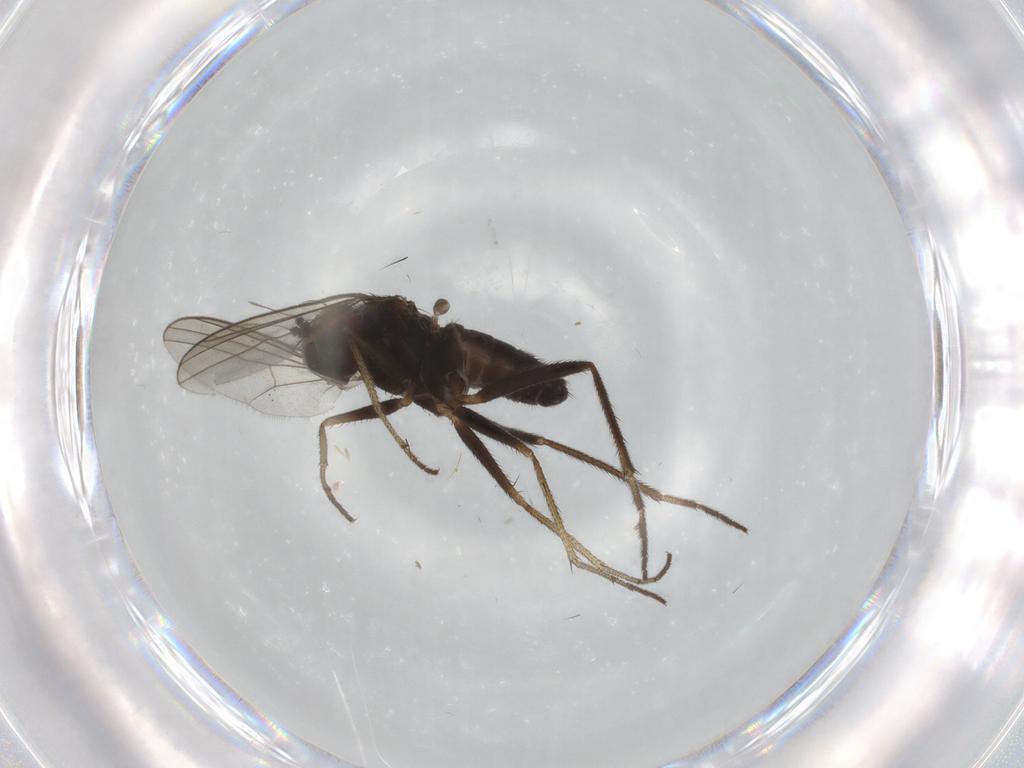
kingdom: Animalia
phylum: Arthropoda
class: Insecta
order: Diptera
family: Dolichopodidae
